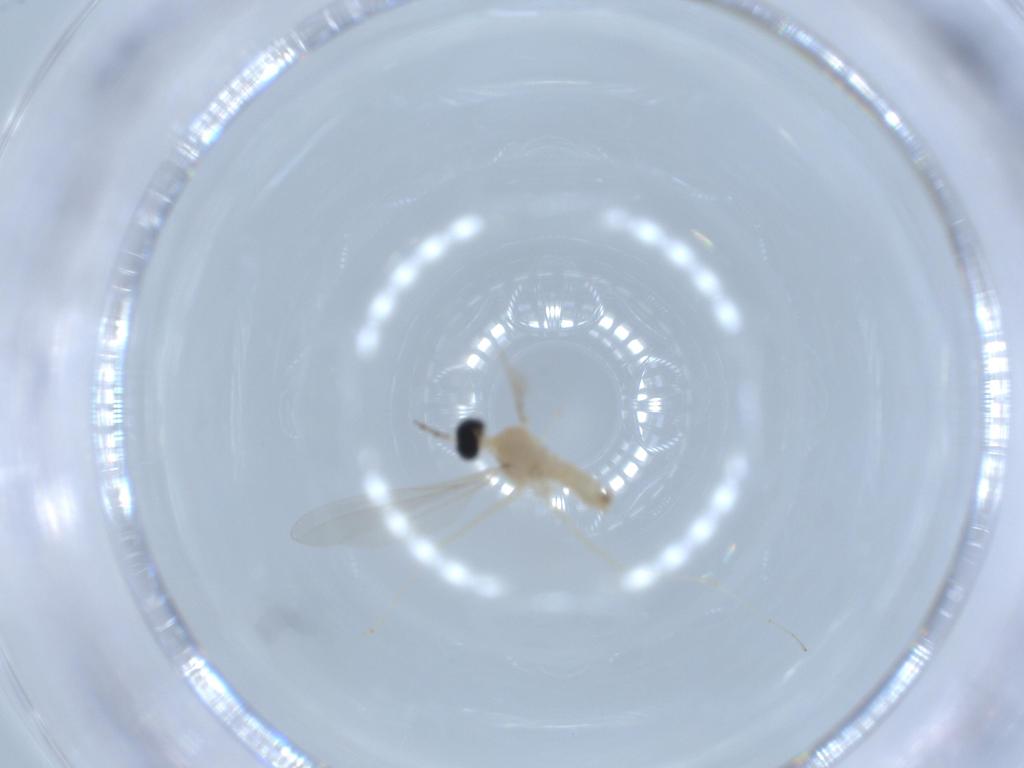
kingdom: Animalia
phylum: Arthropoda
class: Insecta
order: Diptera
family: Cecidomyiidae
